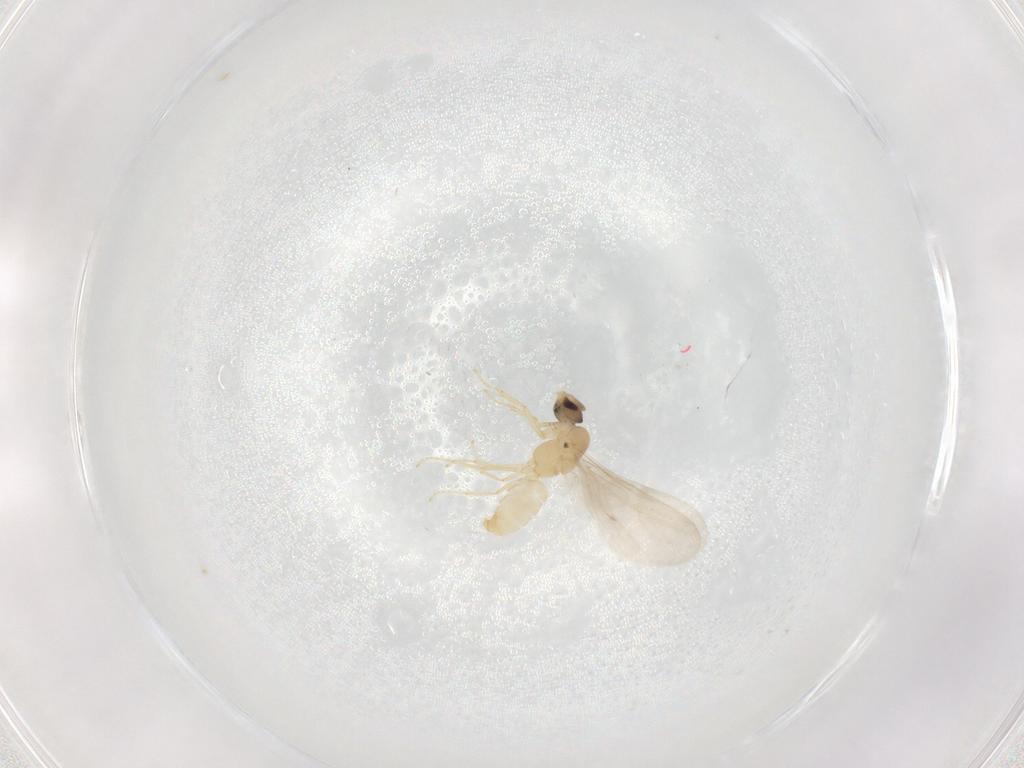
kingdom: Animalia
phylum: Arthropoda
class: Insecta
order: Hymenoptera
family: Formicidae
